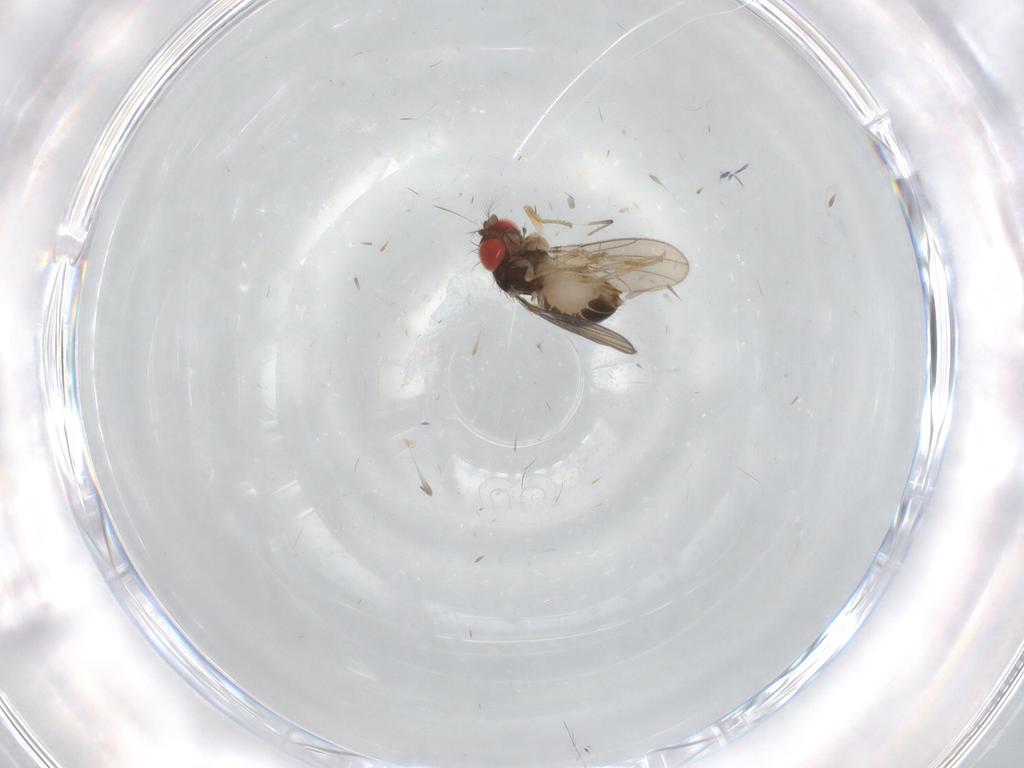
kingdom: Animalia
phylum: Arthropoda
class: Insecta
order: Diptera
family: Drosophilidae
